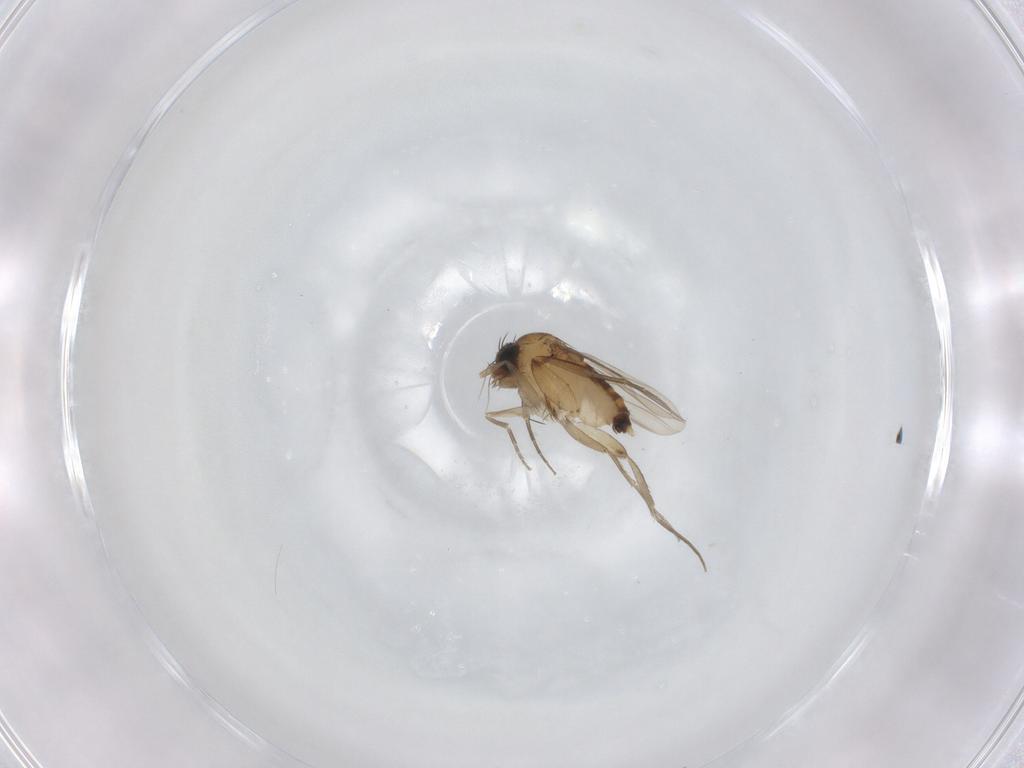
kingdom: Animalia
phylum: Arthropoda
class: Insecta
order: Diptera
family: Phoridae
